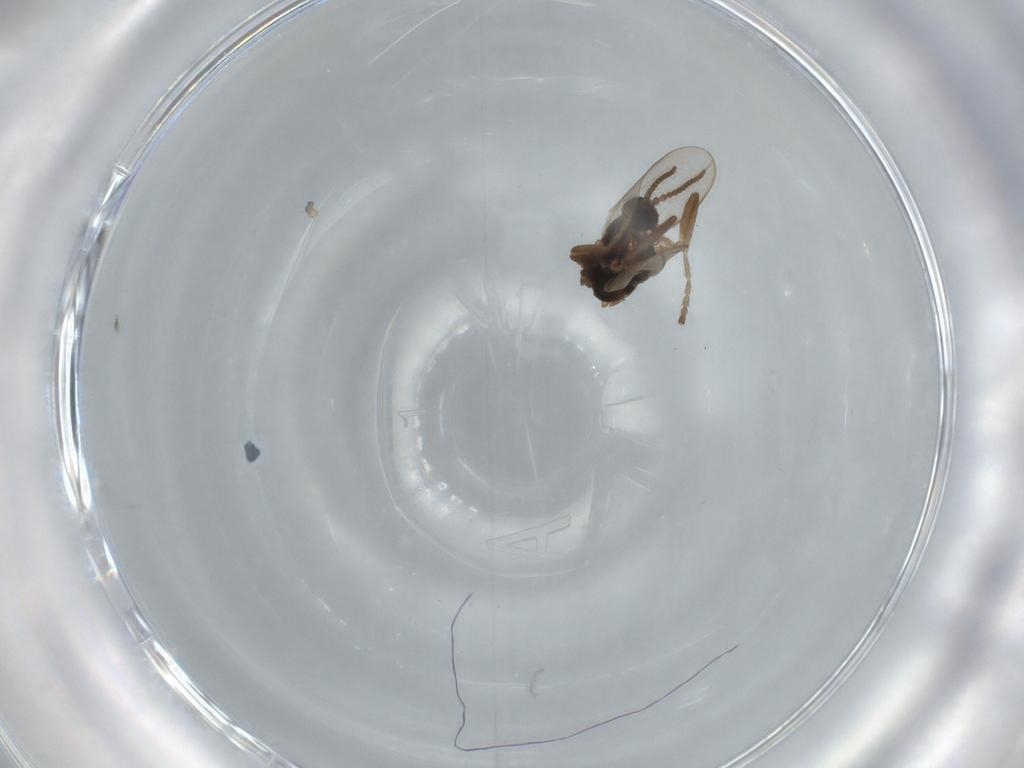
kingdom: Animalia
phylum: Arthropoda
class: Insecta
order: Diptera
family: Cecidomyiidae
